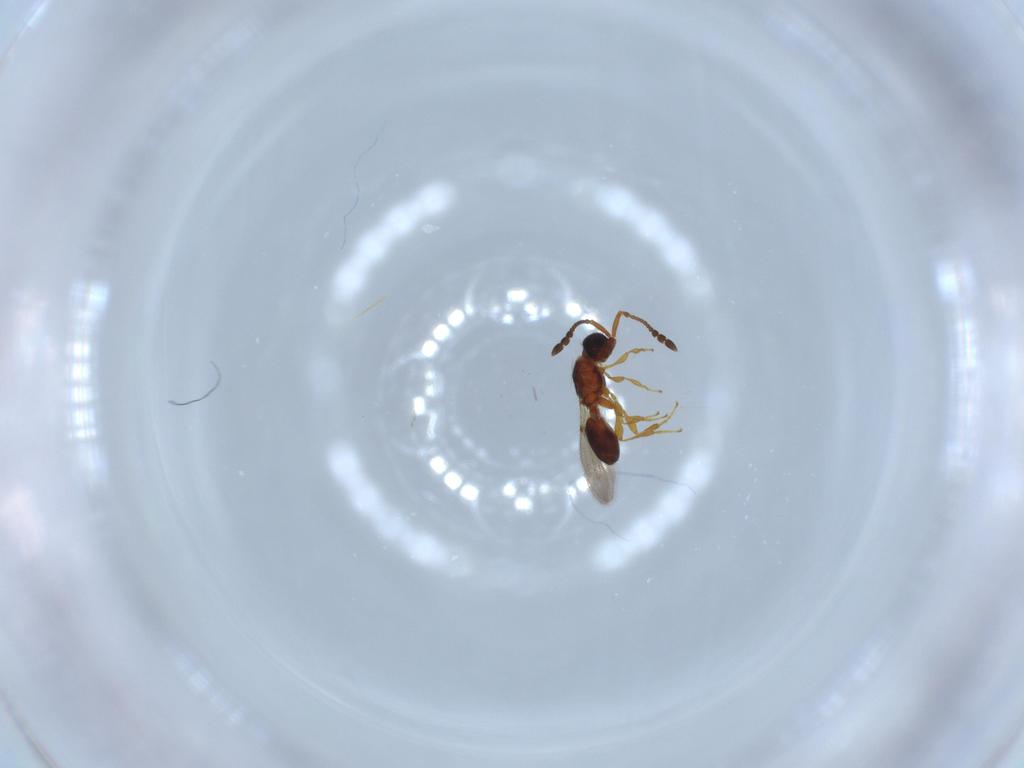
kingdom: Animalia
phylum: Arthropoda
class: Insecta
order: Hymenoptera
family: Diapriidae
